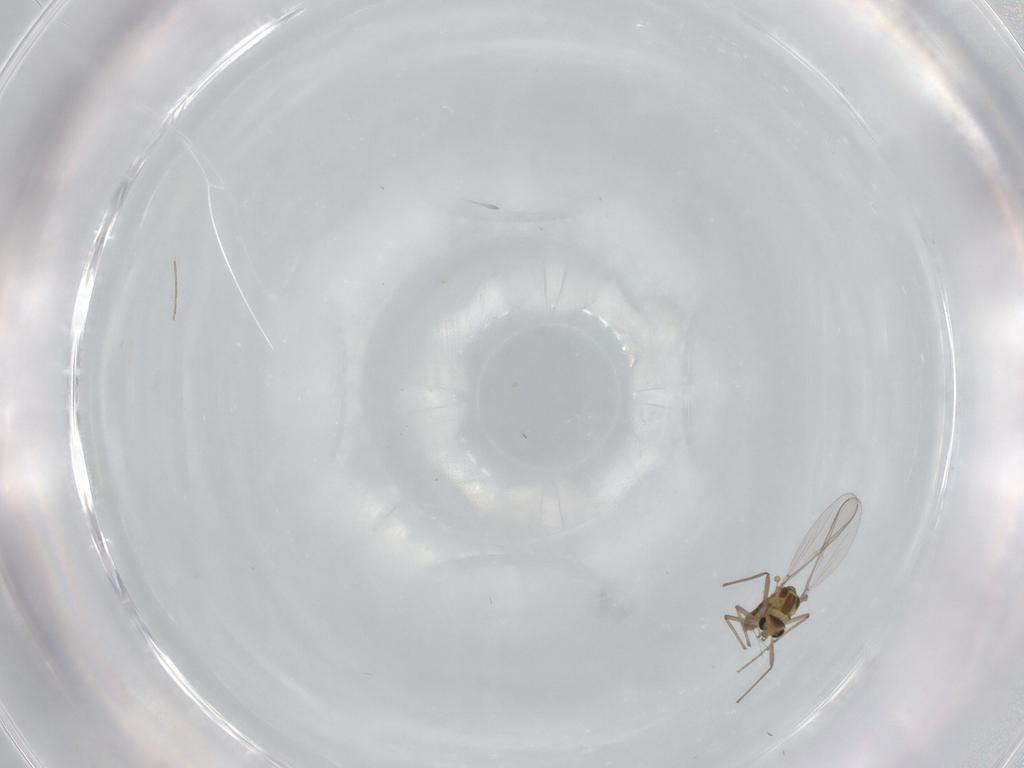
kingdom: Animalia
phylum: Arthropoda
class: Insecta
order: Diptera
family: Chironomidae
